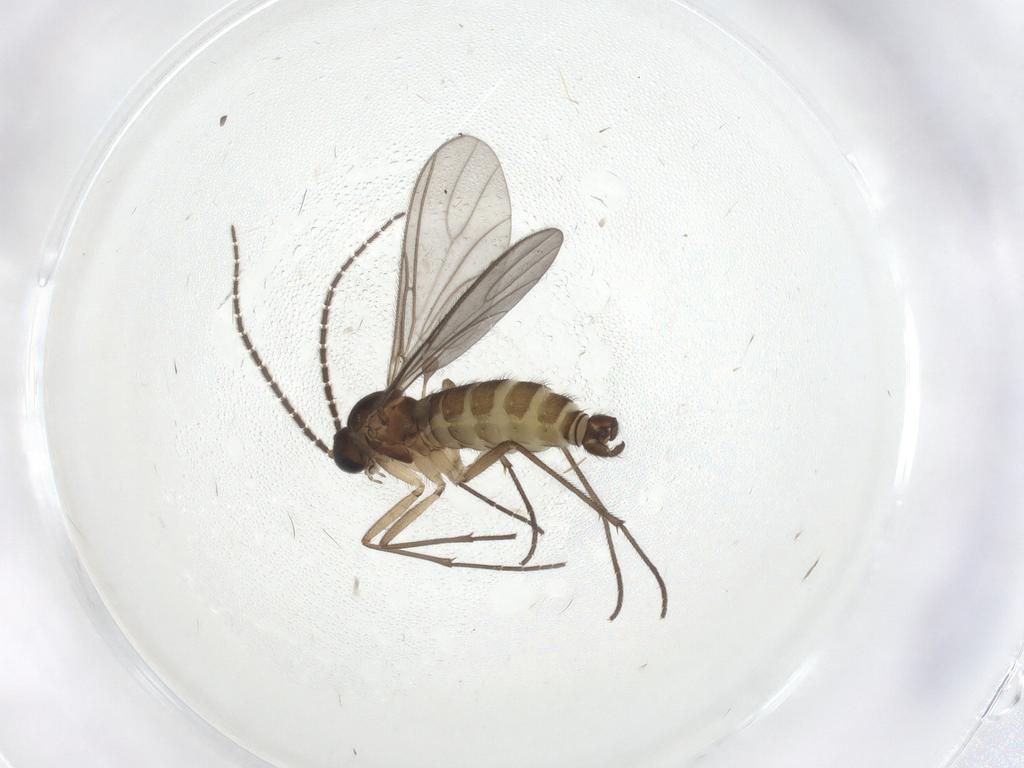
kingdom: Animalia
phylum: Arthropoda
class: Insecta
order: Diptera
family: Sciaridae
